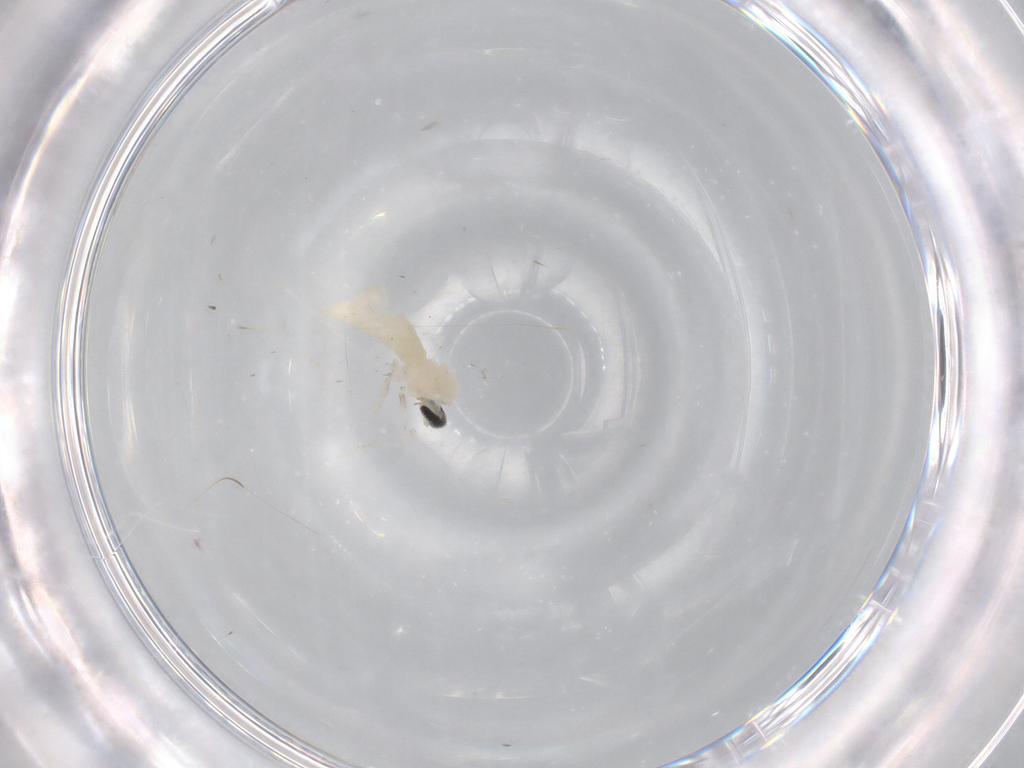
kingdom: Animalia
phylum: Arthropoda
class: Insecta
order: Diptera
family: Cecidomyiidae
